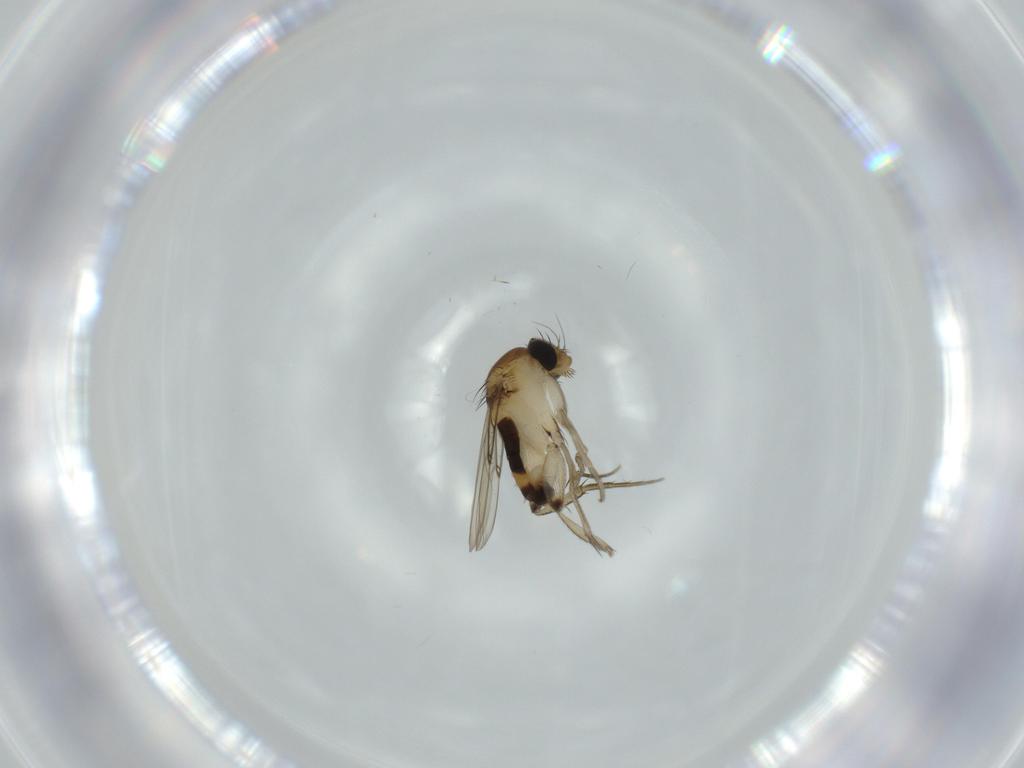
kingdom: Animalia
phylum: Arthropoda
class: Insecta
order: Diptera
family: Phoridae
